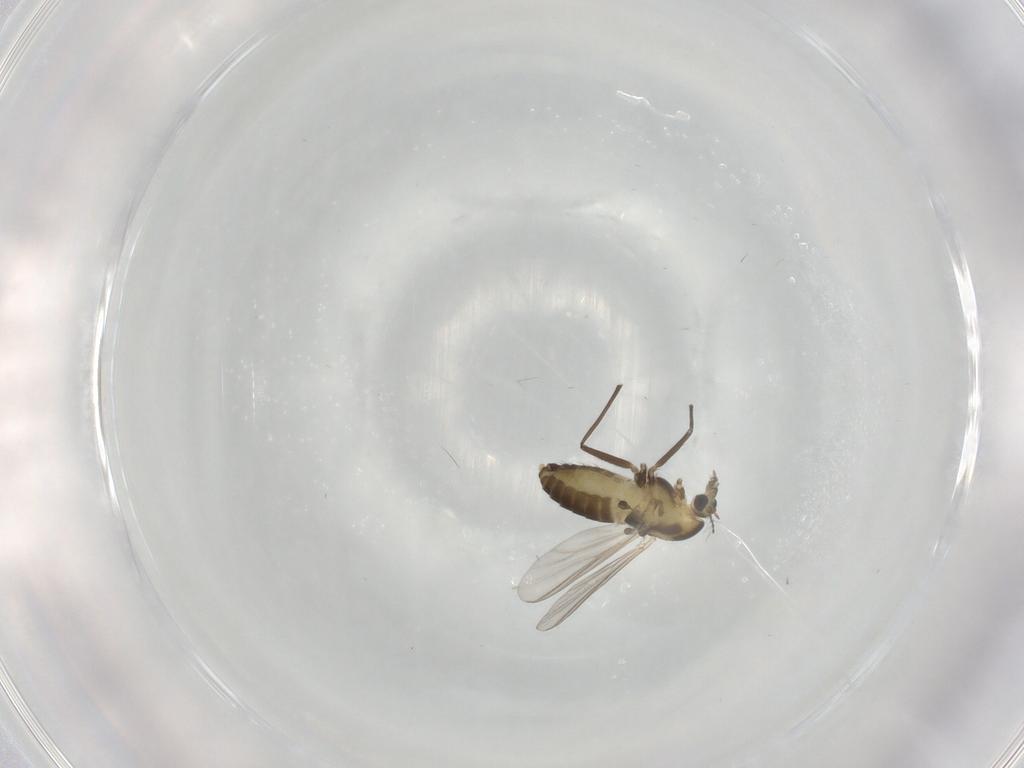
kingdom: Animalia
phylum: Arthropoda
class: Insecta
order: Diptera
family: Chironomidae
